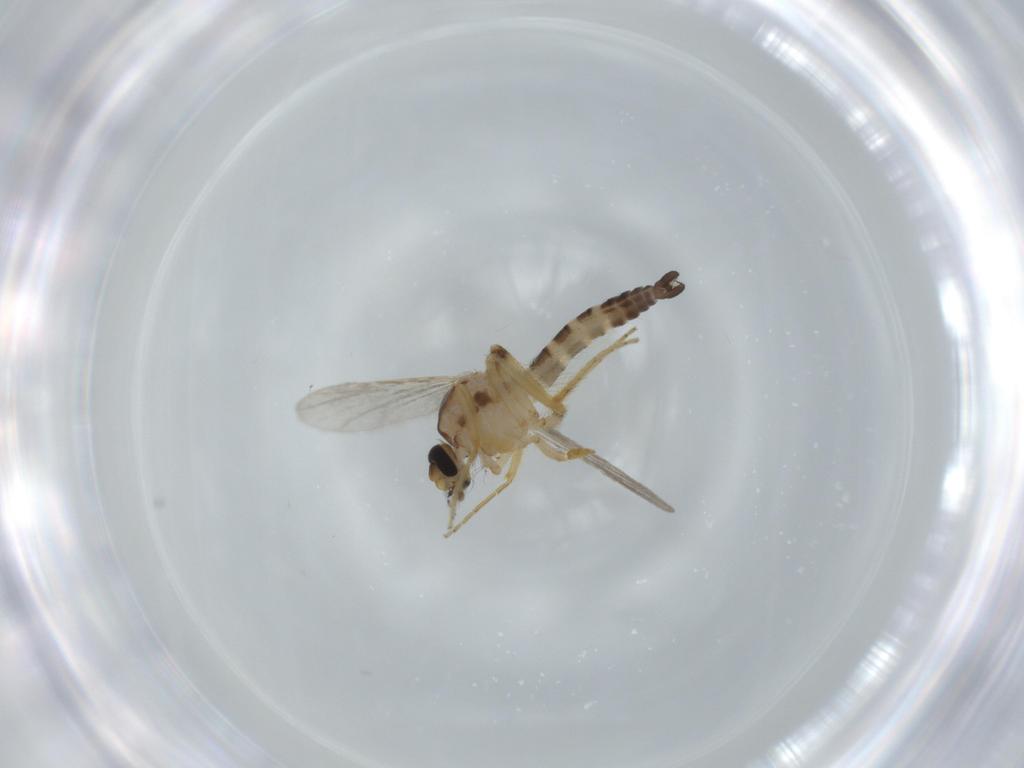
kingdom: Animalia
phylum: Arthropoda
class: Insecta
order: Diptera
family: Ceratopogonidae
